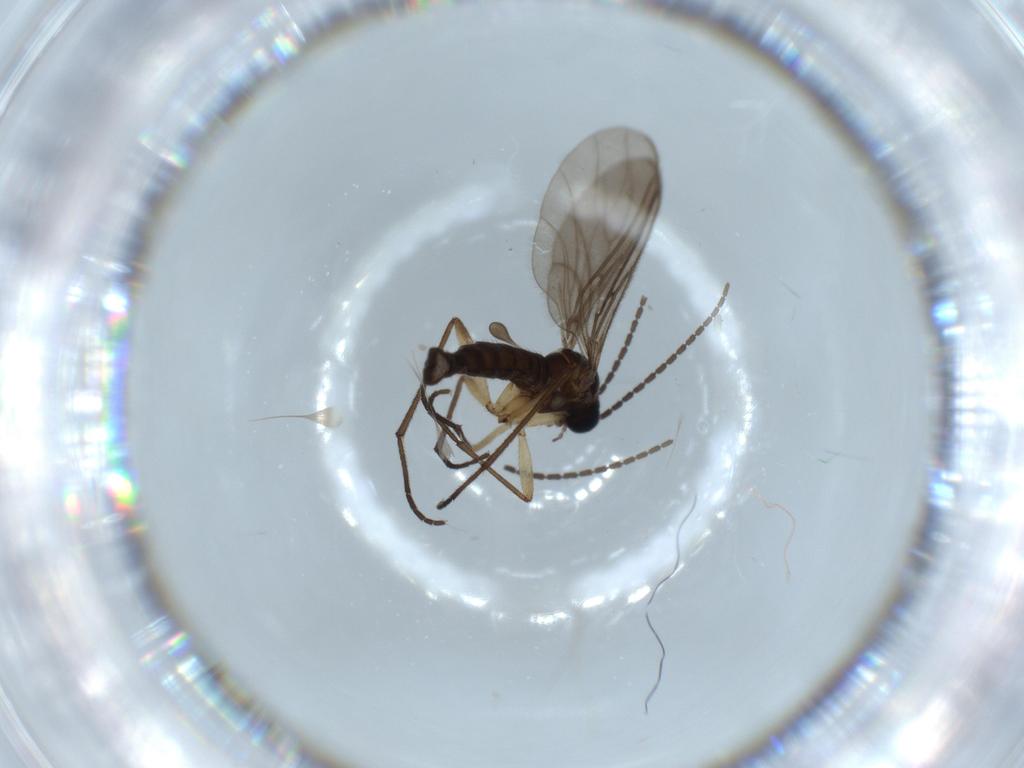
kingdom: Animalia
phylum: Arthropoda
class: Insecta
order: Diptera
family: Sciaridae
